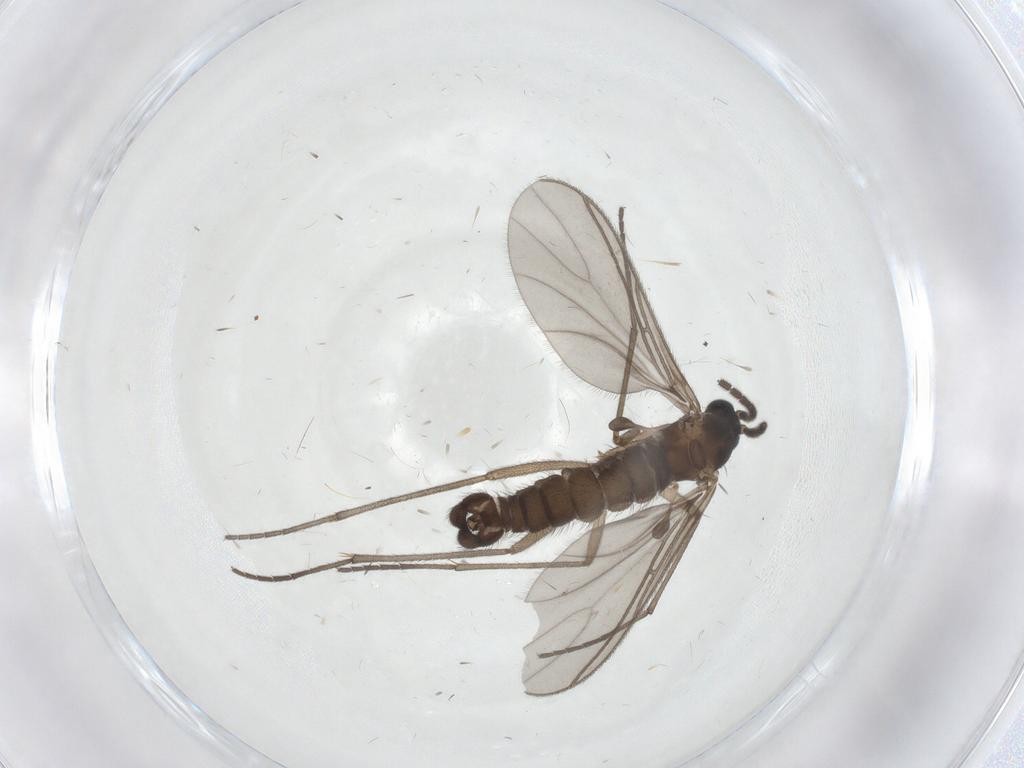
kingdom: Animalia
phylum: Arthropoda
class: Insecta
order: Diptera
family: Sciaridae
